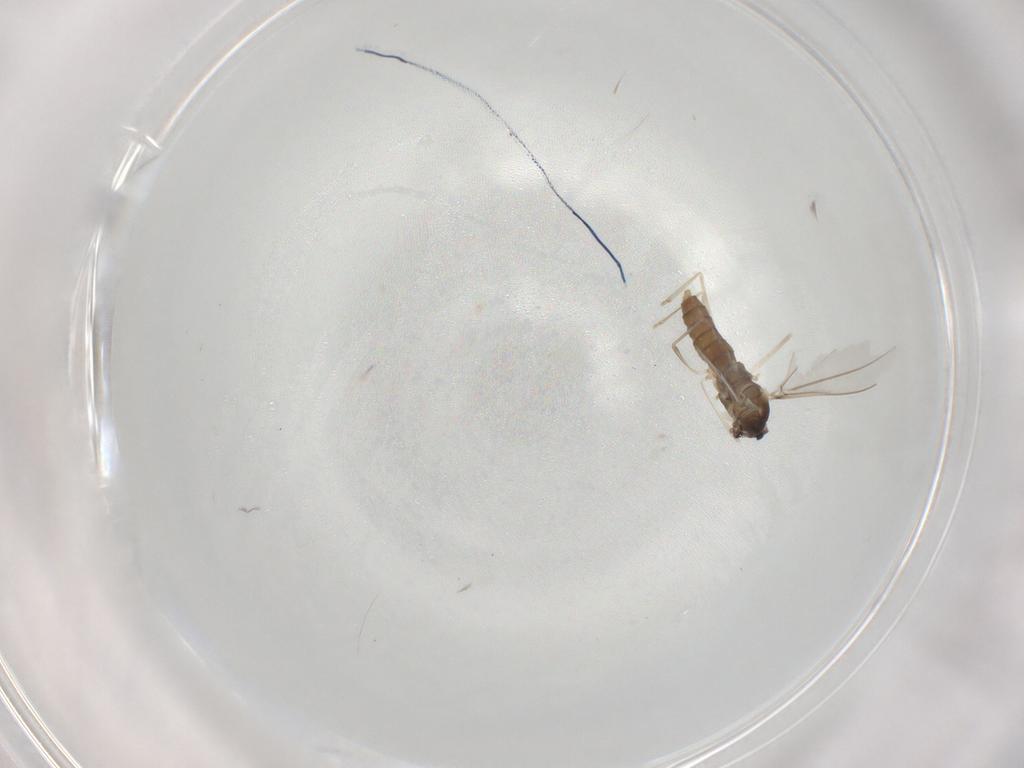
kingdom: Animalia
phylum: Arthropoda
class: Insecta
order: Diptera
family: Cecidomyiidae
